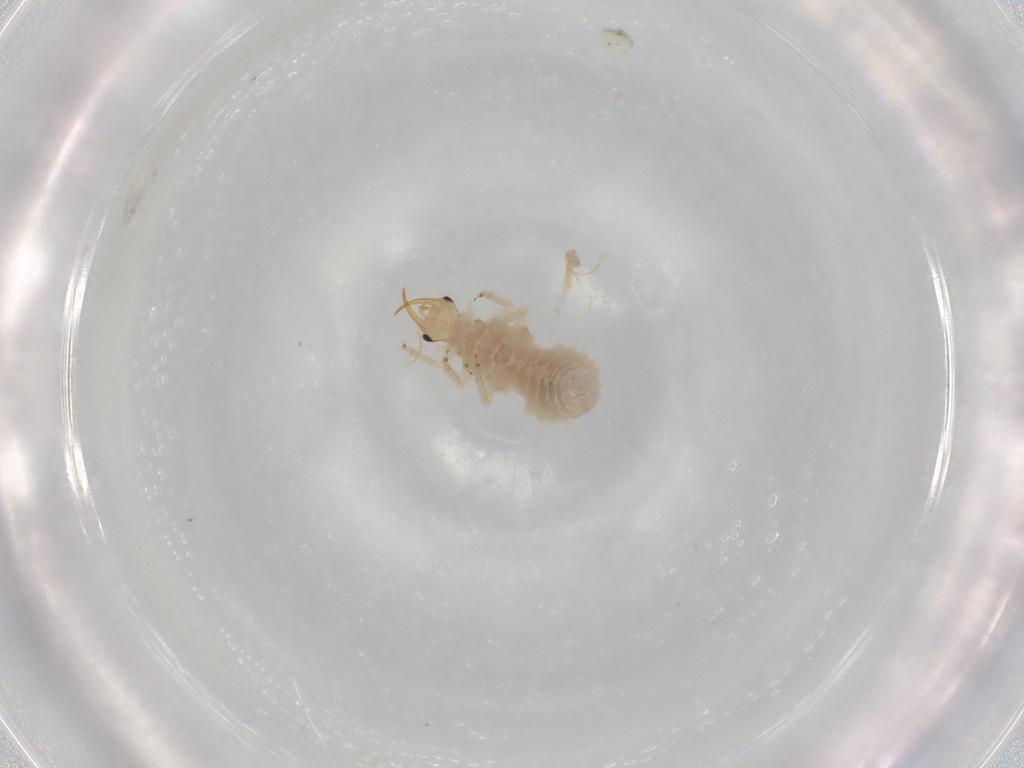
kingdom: Animalia
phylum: Arthropoda
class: Insecta
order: Neuroptera
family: Chrysopidae
